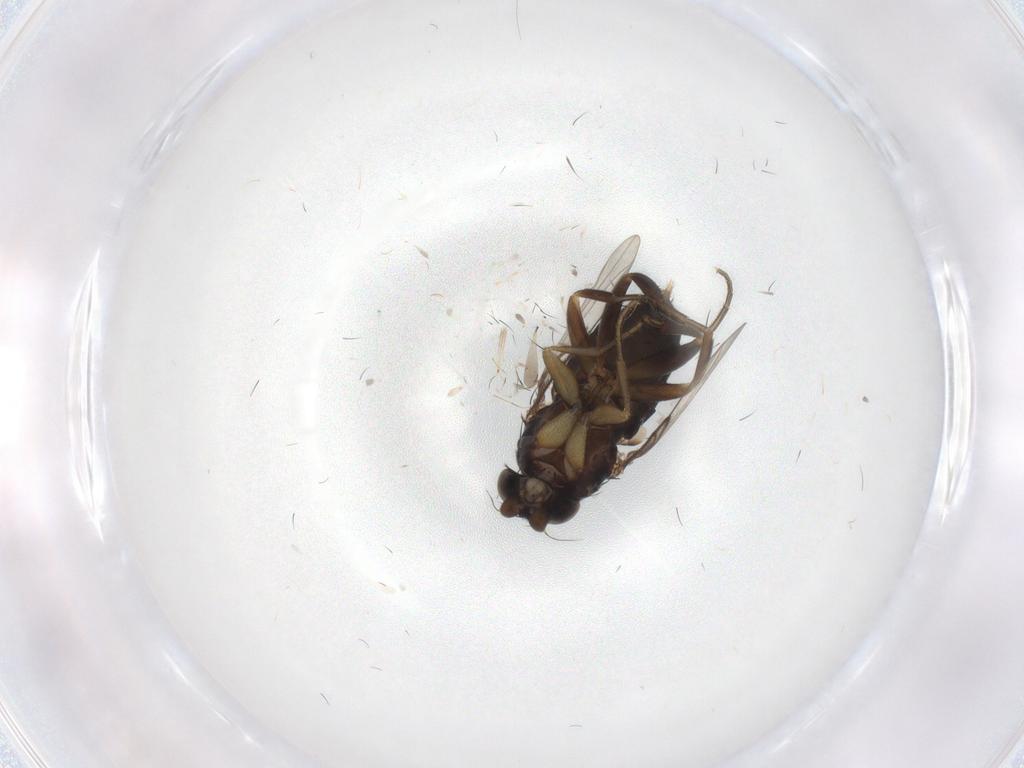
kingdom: Animalia
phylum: Arthropoda
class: Insecta
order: Diptera
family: Phoridae
